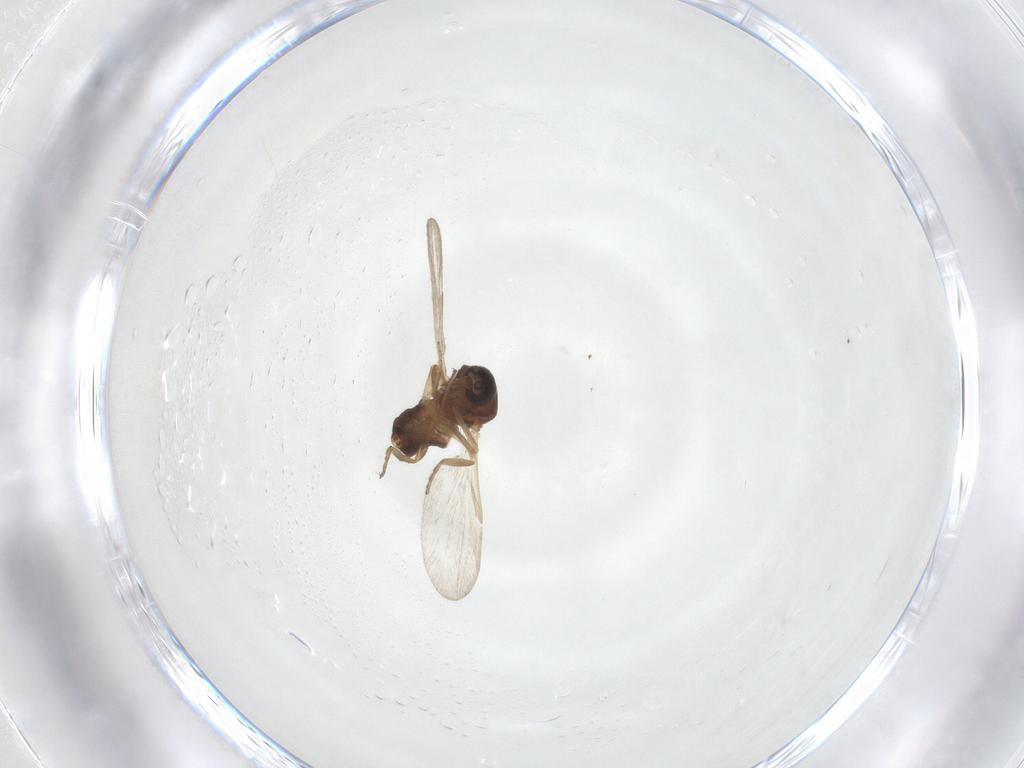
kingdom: Animalia
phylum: Arthropoda
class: Insecta
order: Diptera
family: Ceratopogonidae
